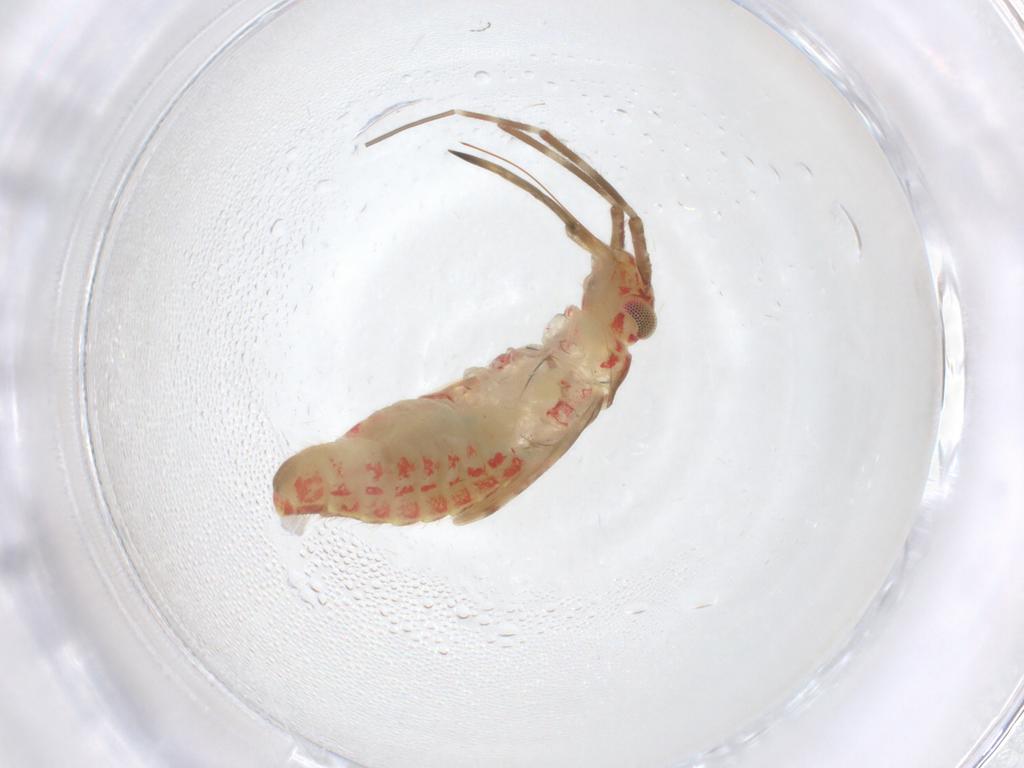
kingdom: Animalia
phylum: Arthropoda
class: Insecta
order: Hemiptera
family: Miridae
